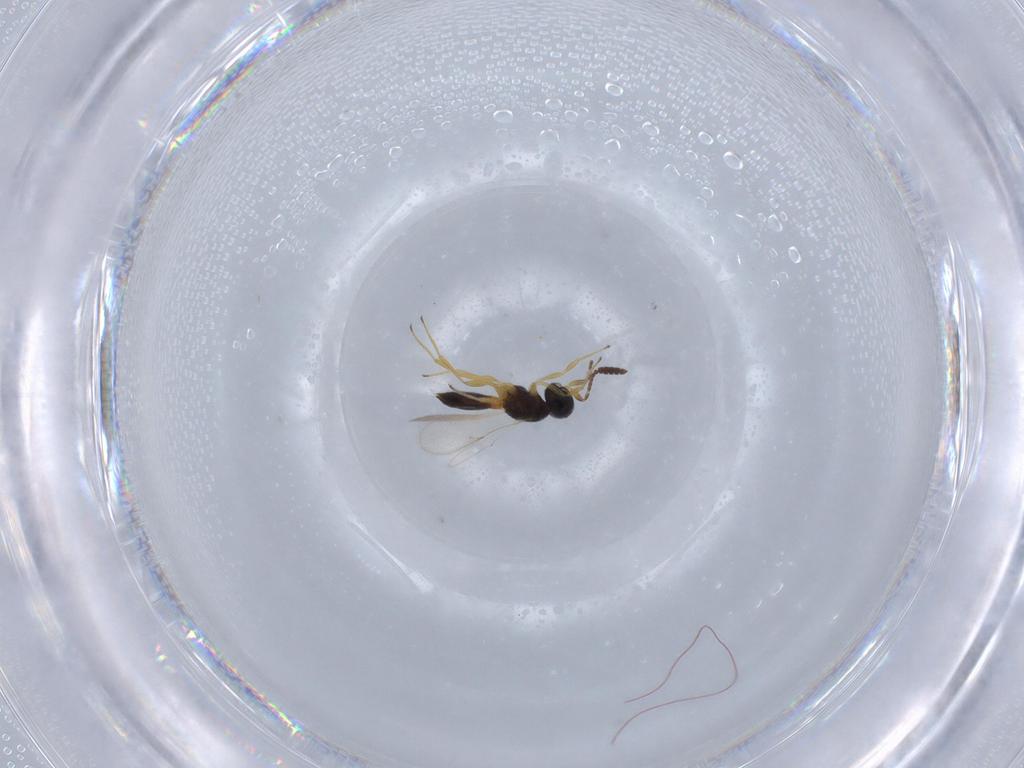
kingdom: Animalia
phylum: Arthropoda
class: Insecta
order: Hymenoptera
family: Scelionidae
